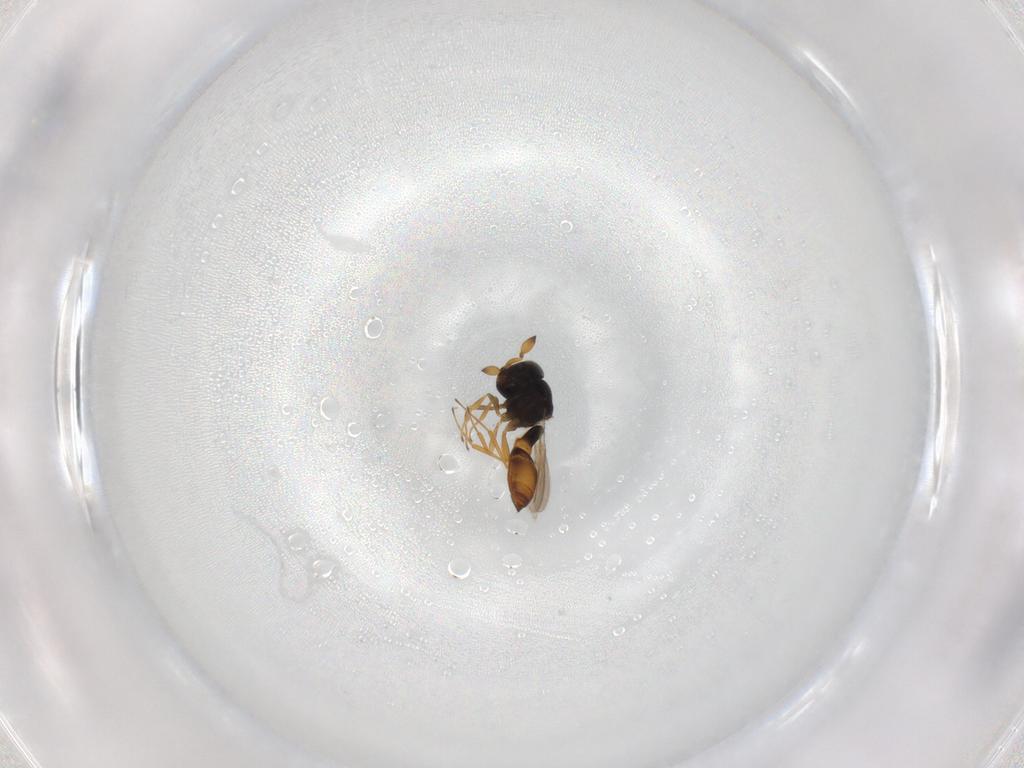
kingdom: Animalia
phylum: Arthropoda
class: Insecta
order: Hymenoptera
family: Scelionidae
